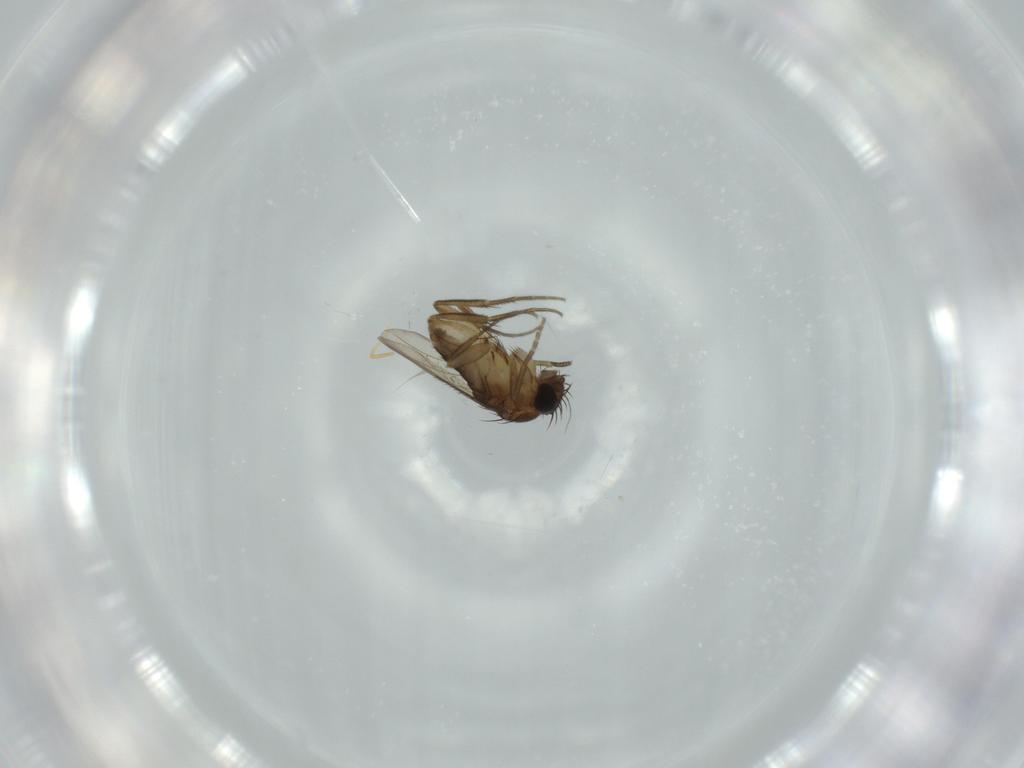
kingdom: Animalia
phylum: Arthropoda
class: Insecta
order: Diptera
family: Phoridae
